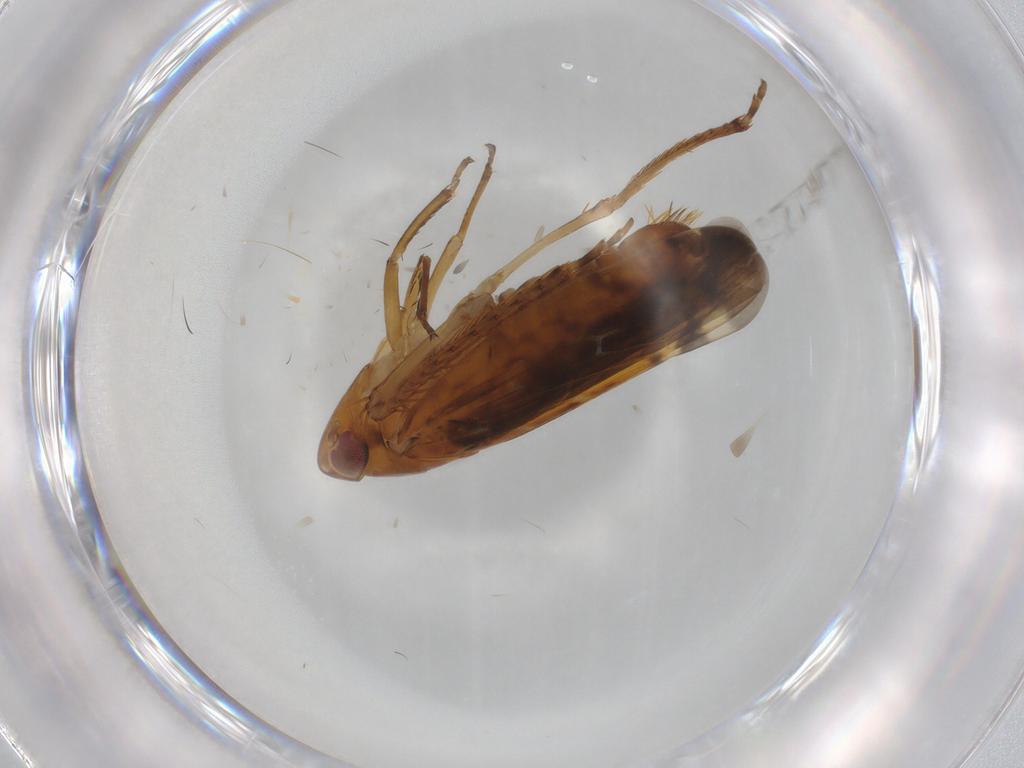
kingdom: Animalia
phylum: Arthropoda
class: Insecta
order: Hemiptera
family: Cicadellidae
